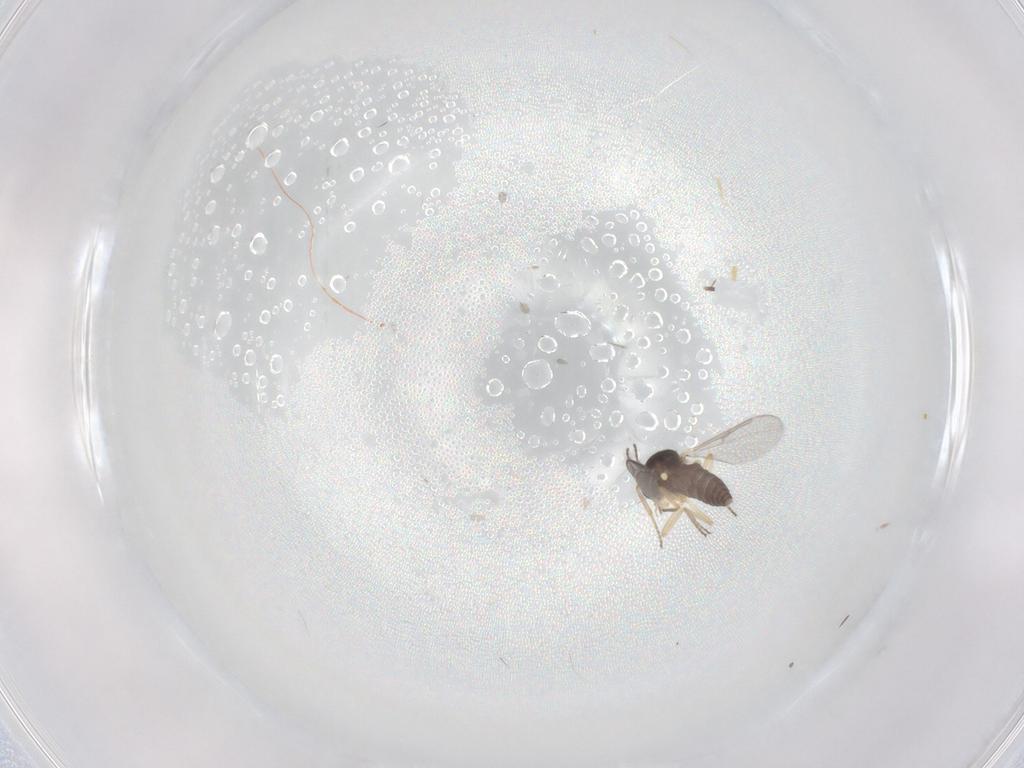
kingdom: Animalia
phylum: Arthropoda
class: Insecta
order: Diptera
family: Ceratopogonidae
